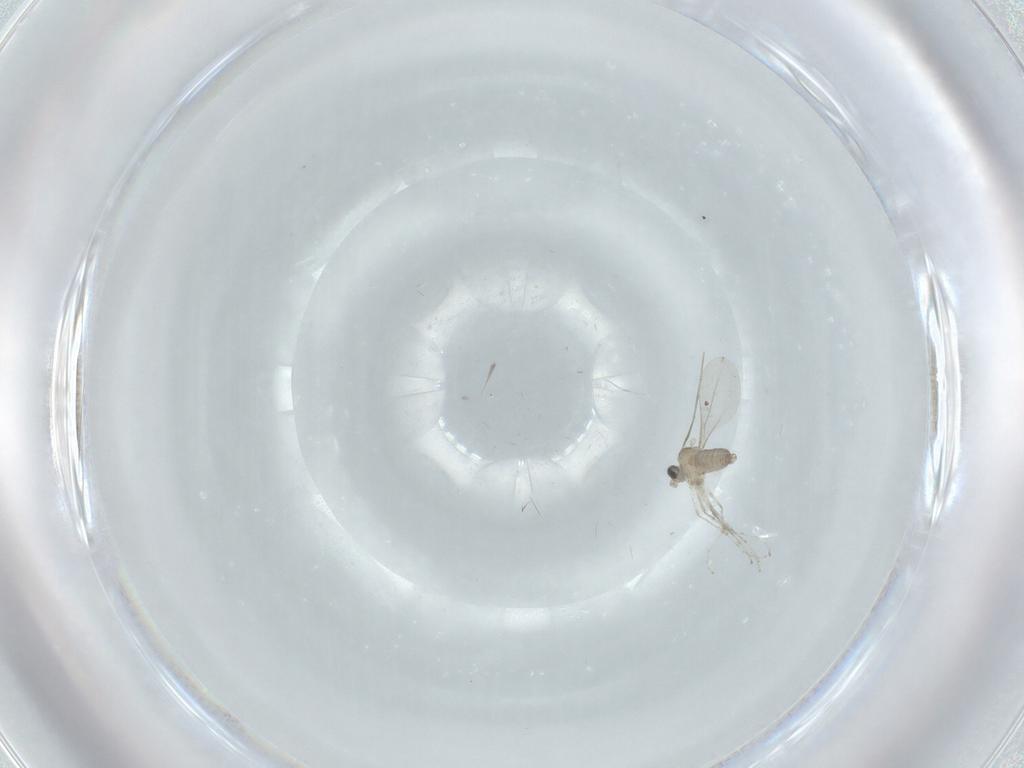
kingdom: Animalia
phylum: Arthropoda
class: Insecta
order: Diptera
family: Cecidomyiidae
